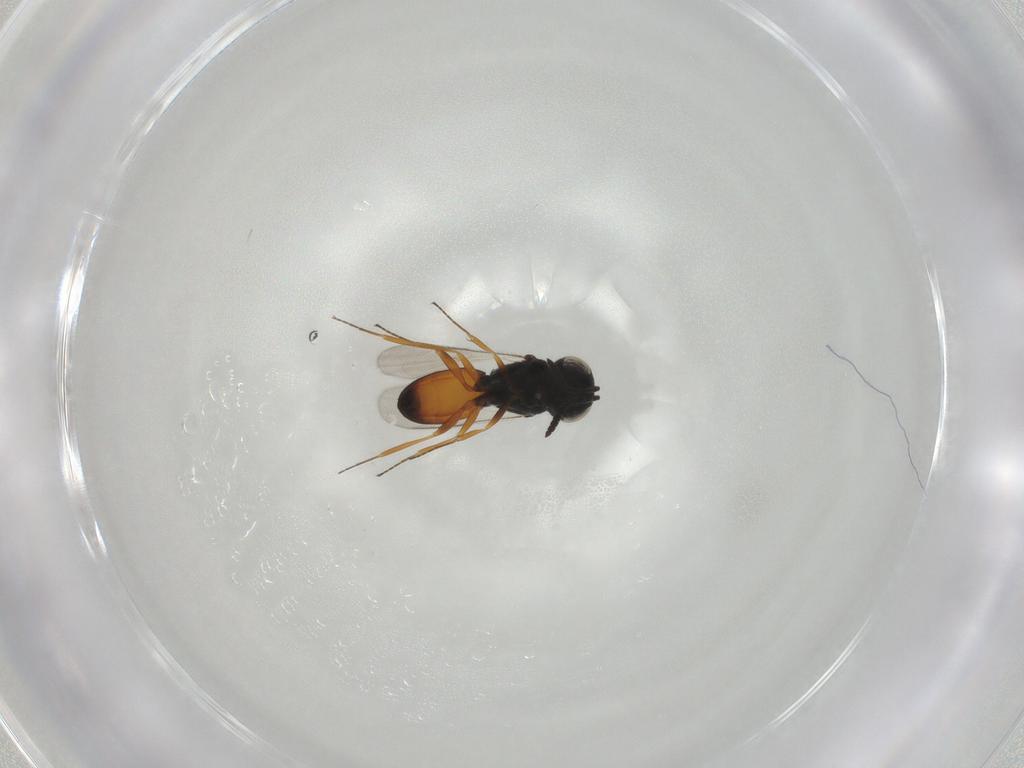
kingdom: Animalia
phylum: Arthropoda
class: Insecta
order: Hymenoptera
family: Scelionidae
